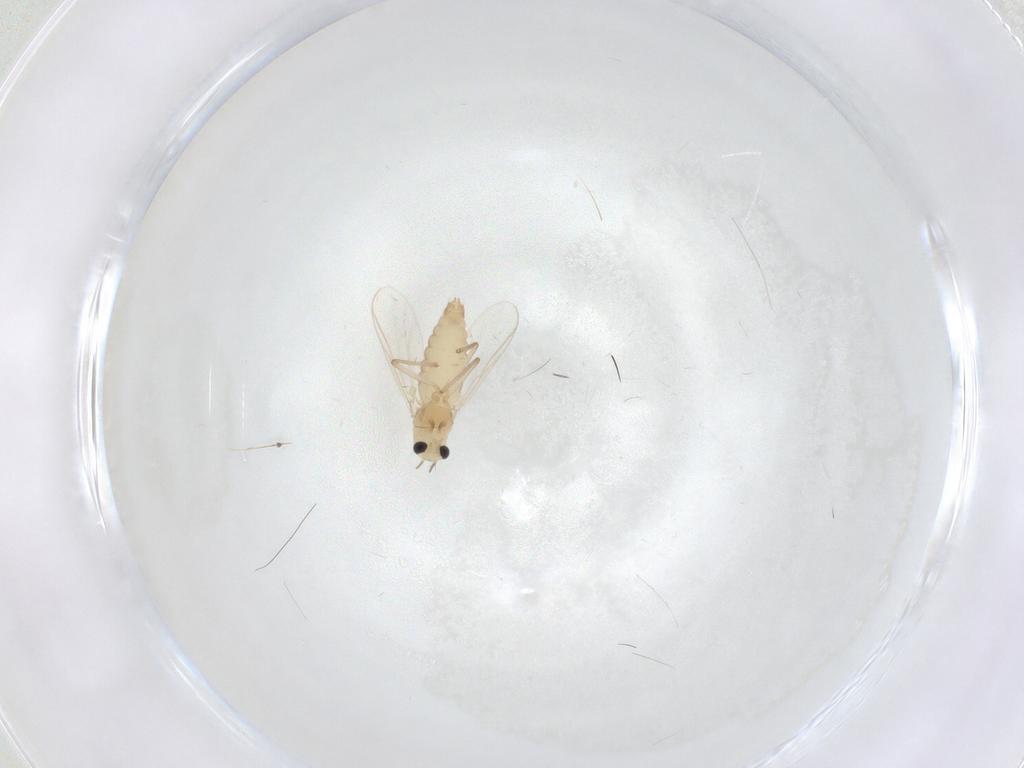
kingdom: Animalia
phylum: Arthropoda
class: Insecta
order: Diptera
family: Chironomidae
